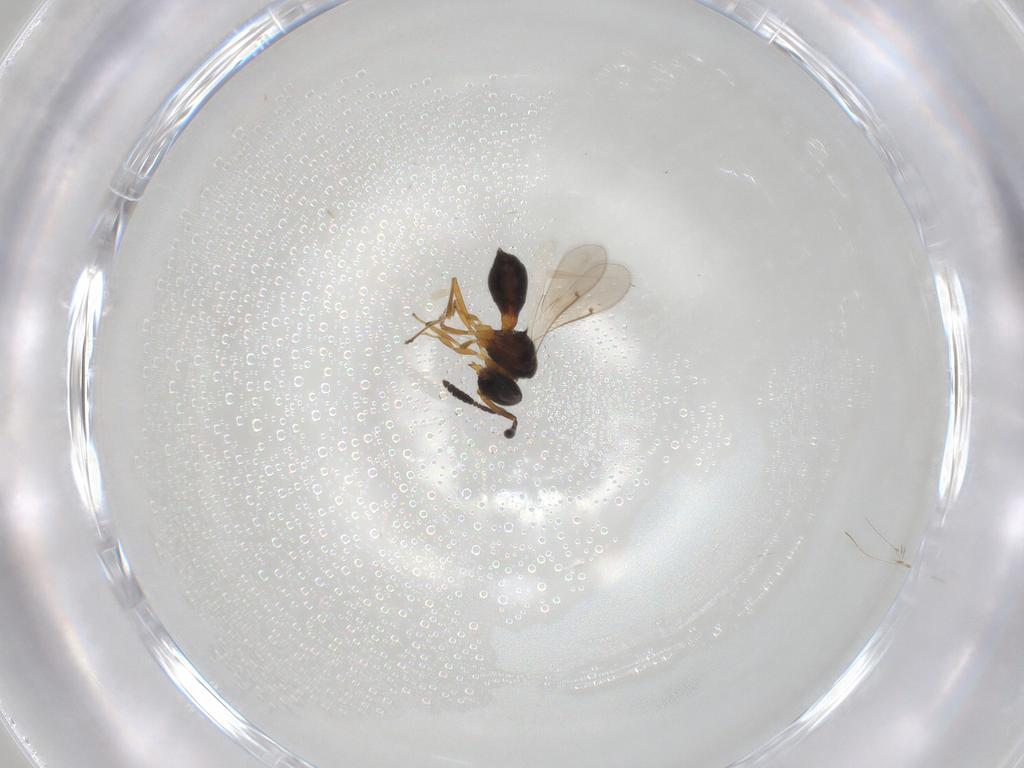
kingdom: Animalia
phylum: Arthropoda
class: Insecta
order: Hymenoptera
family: Scelionidae
